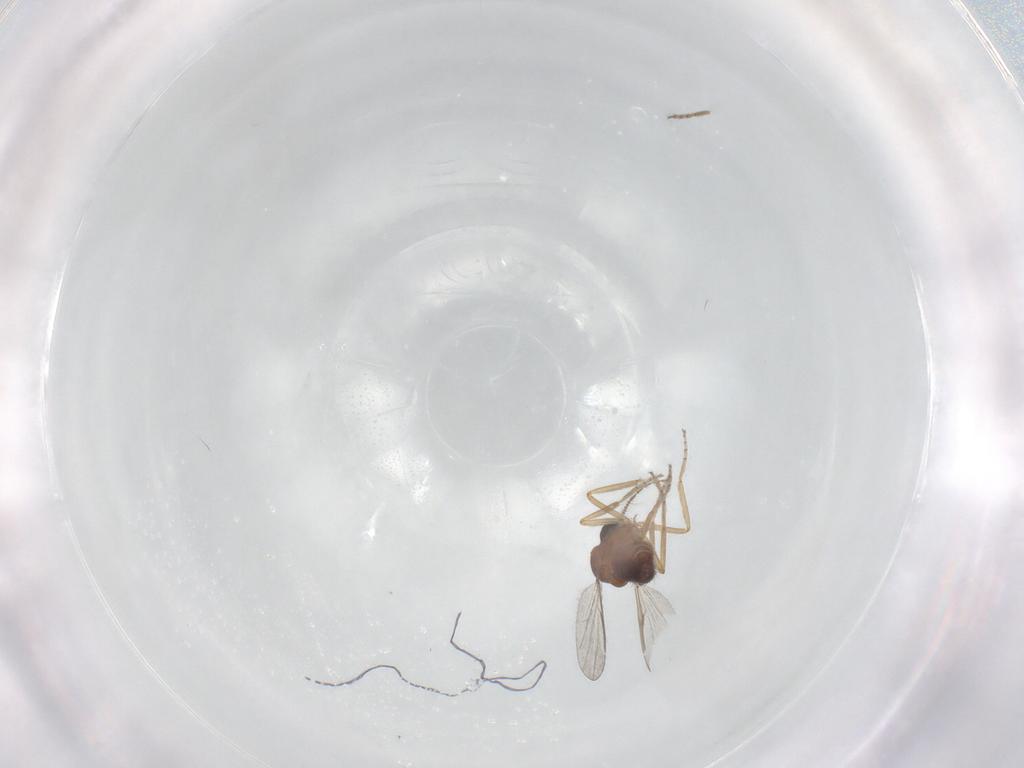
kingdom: Animalia
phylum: Arthropoda
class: Insecta
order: Diptera
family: Ceratopogonidae
